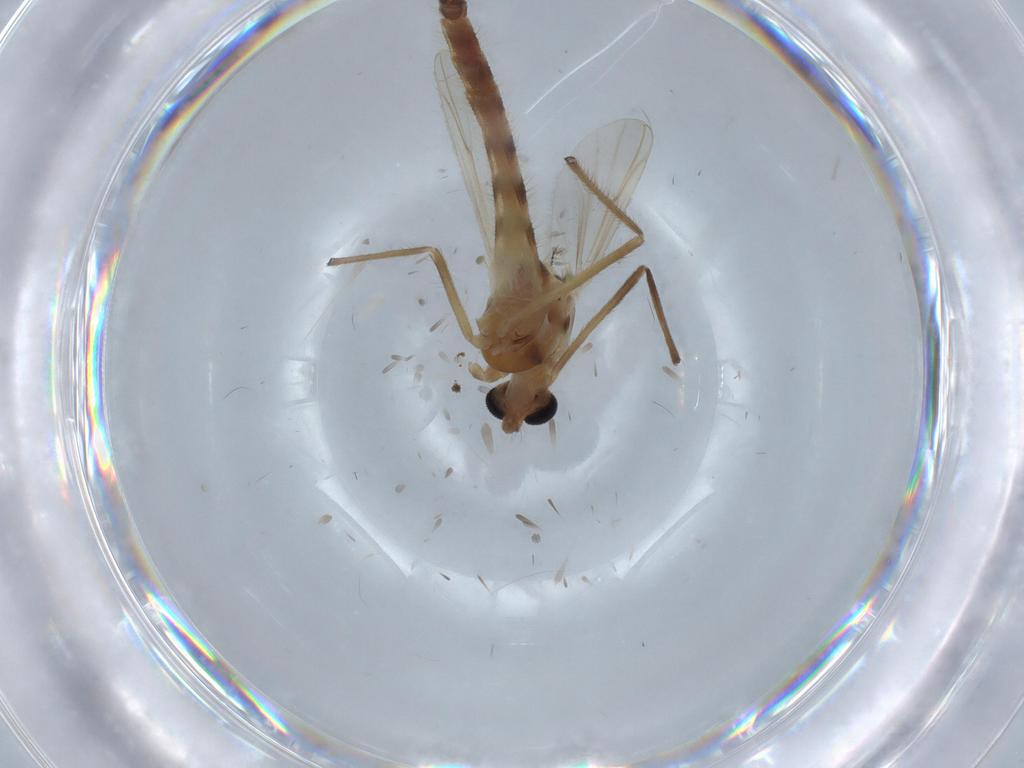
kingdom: Animalia
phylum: Arthropoda
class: Insecta
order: Diptera
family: Chironomidae
